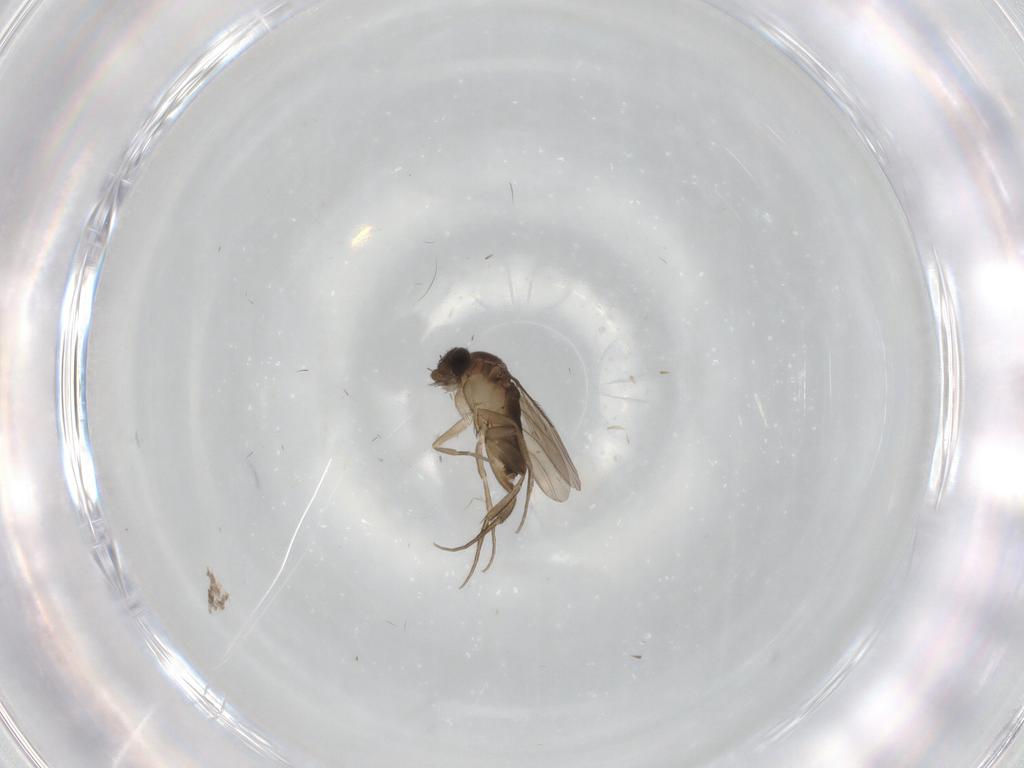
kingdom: Animalia
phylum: Arthropoda
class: Insecta
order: Diptera
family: Phoridae
